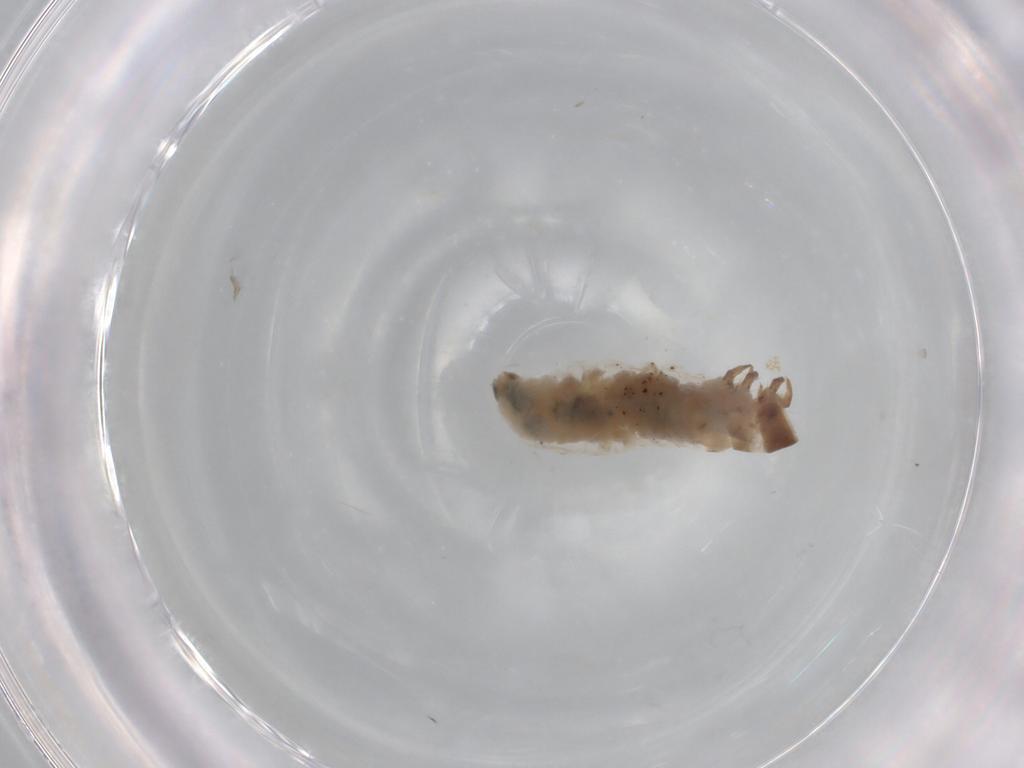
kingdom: Animalia
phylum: Arthropoda
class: Insecta
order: Lepidoptera
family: Psychidae
